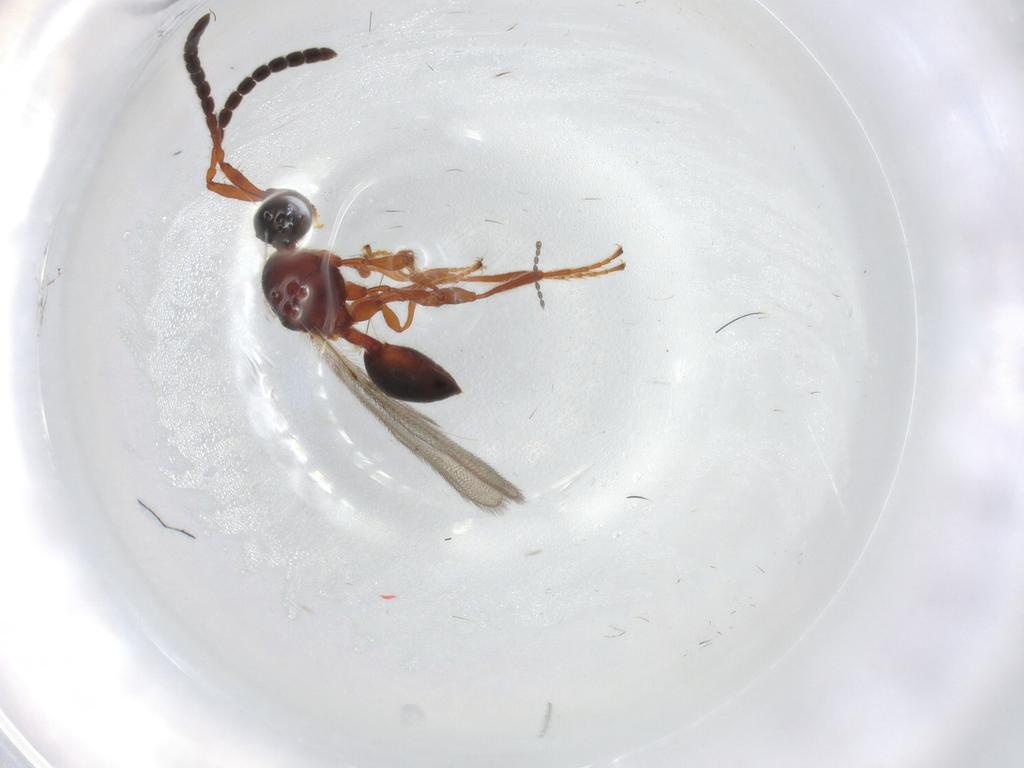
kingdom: Animalia
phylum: Arthropoda
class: Insecta
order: Hymenoptera
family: Diapriidae
